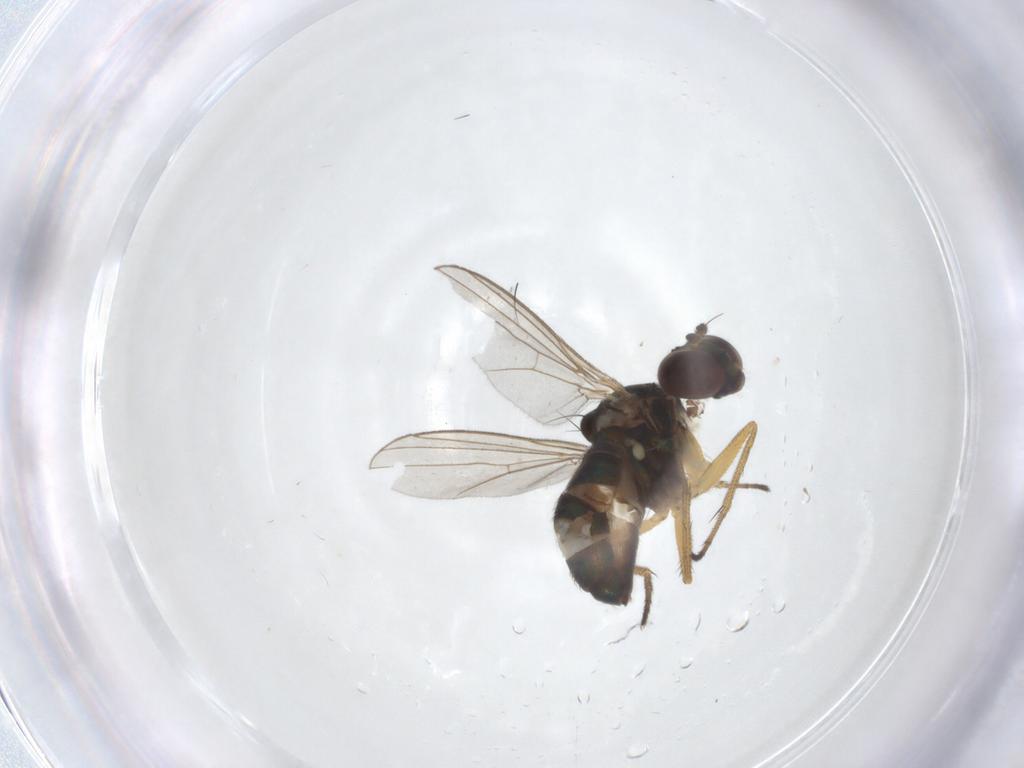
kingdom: Animalia
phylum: Arthropoda
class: Insecta
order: Diptera
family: Dolichopodidae
